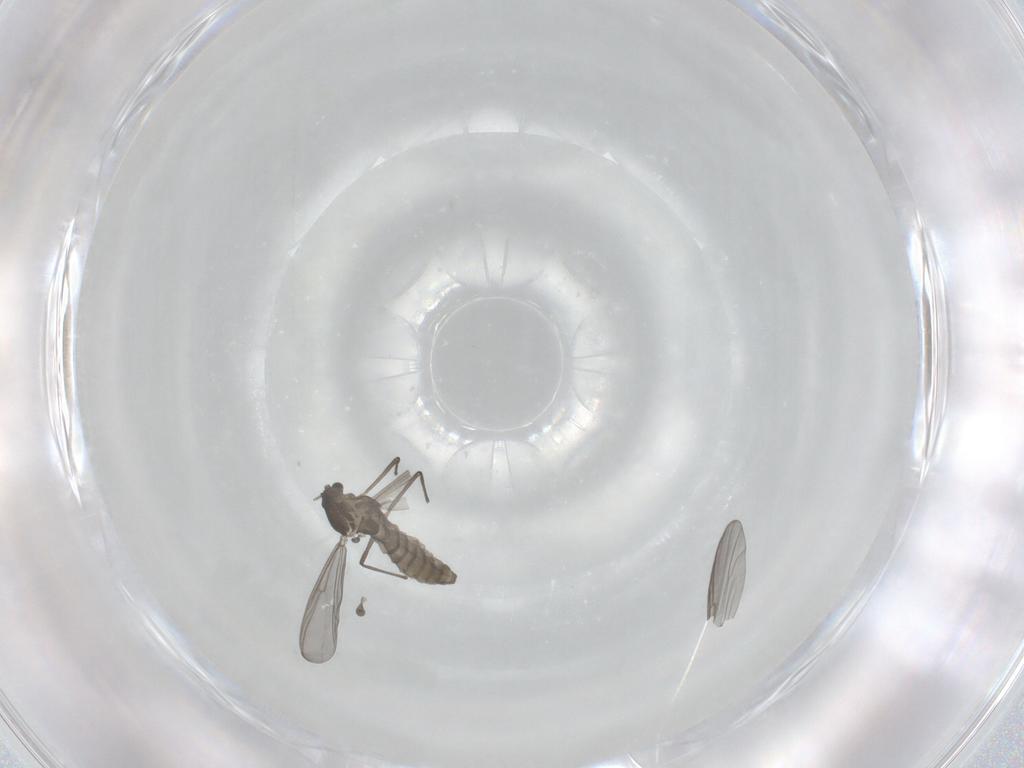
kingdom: Animalia
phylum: Arthropoda
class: Insecta
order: Diptera
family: Chironomidae
